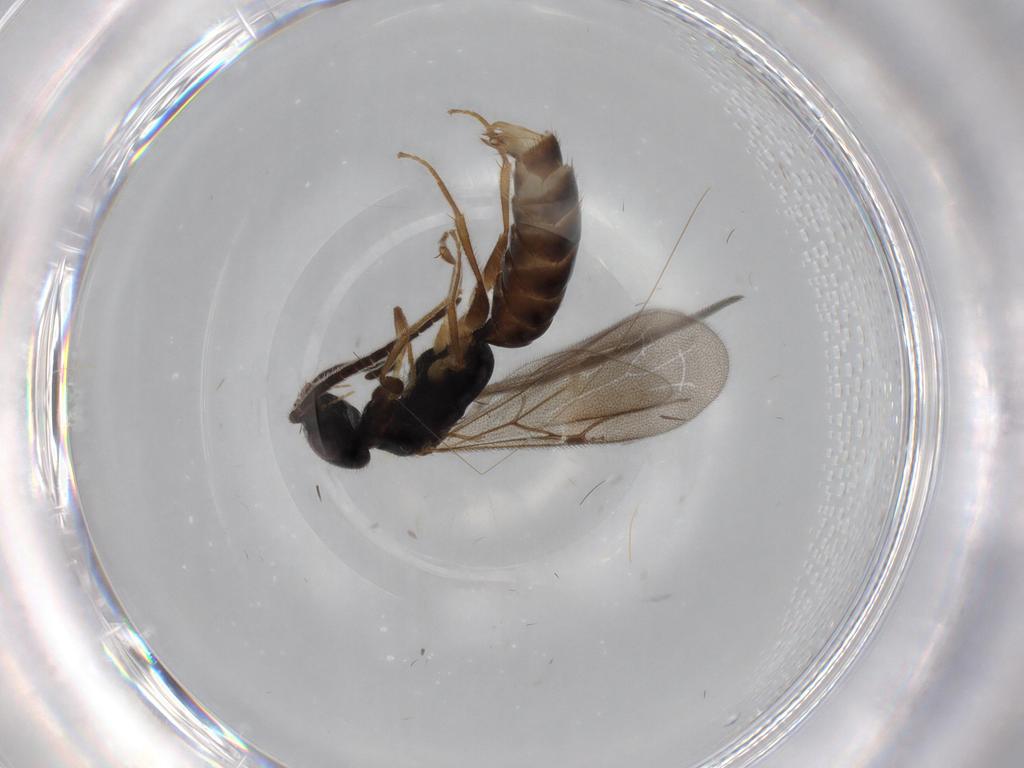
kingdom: Animalia
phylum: Arthropoda
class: Insecta
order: Hymenoptera
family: Bethylidae
